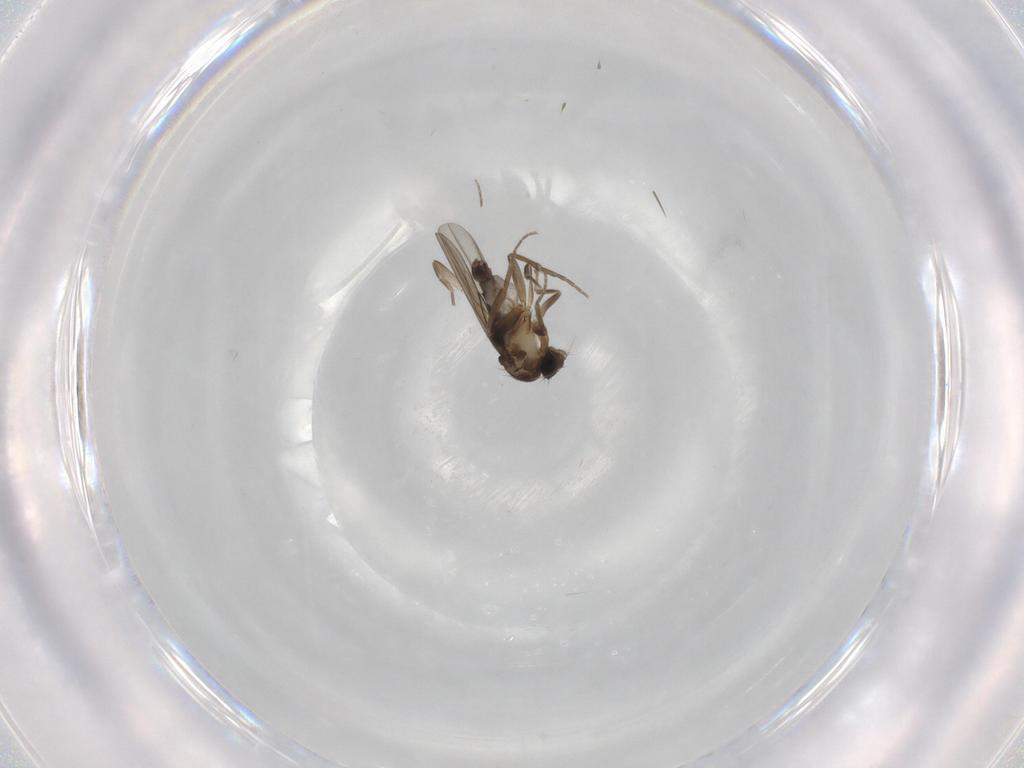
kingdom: Animalia
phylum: Arthropoda
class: Insecta
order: Diptera
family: Phoridae
